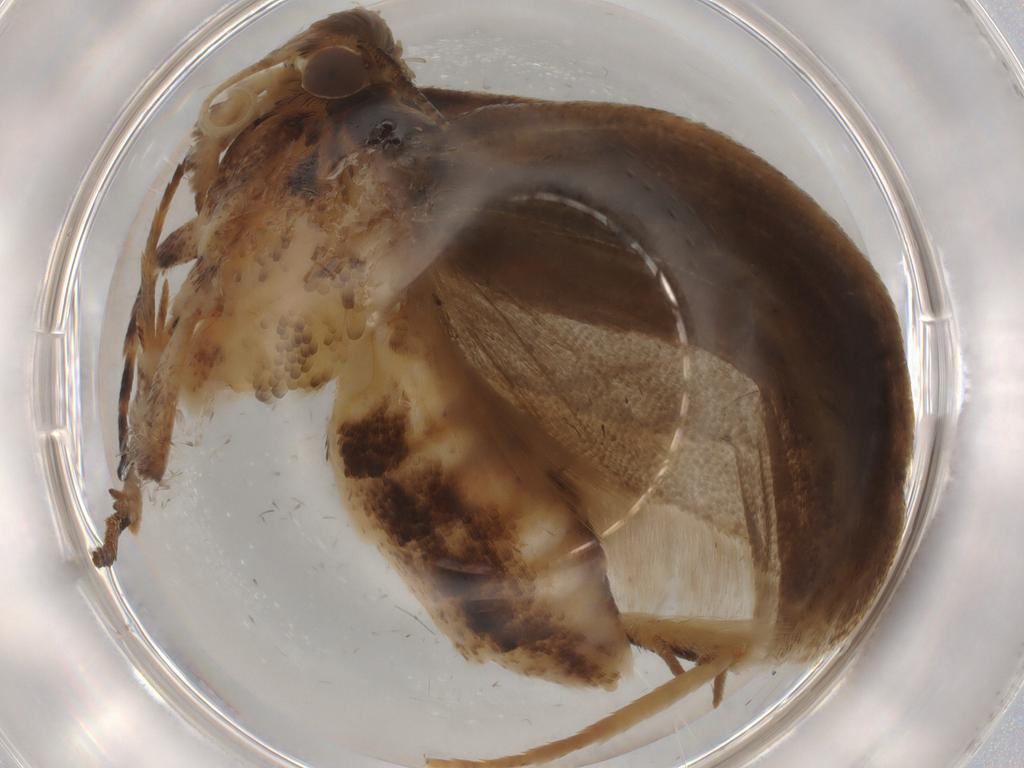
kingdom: Animalia
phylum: Arthropoda
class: Insecta
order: Lepidoptera
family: Gelechiidae
